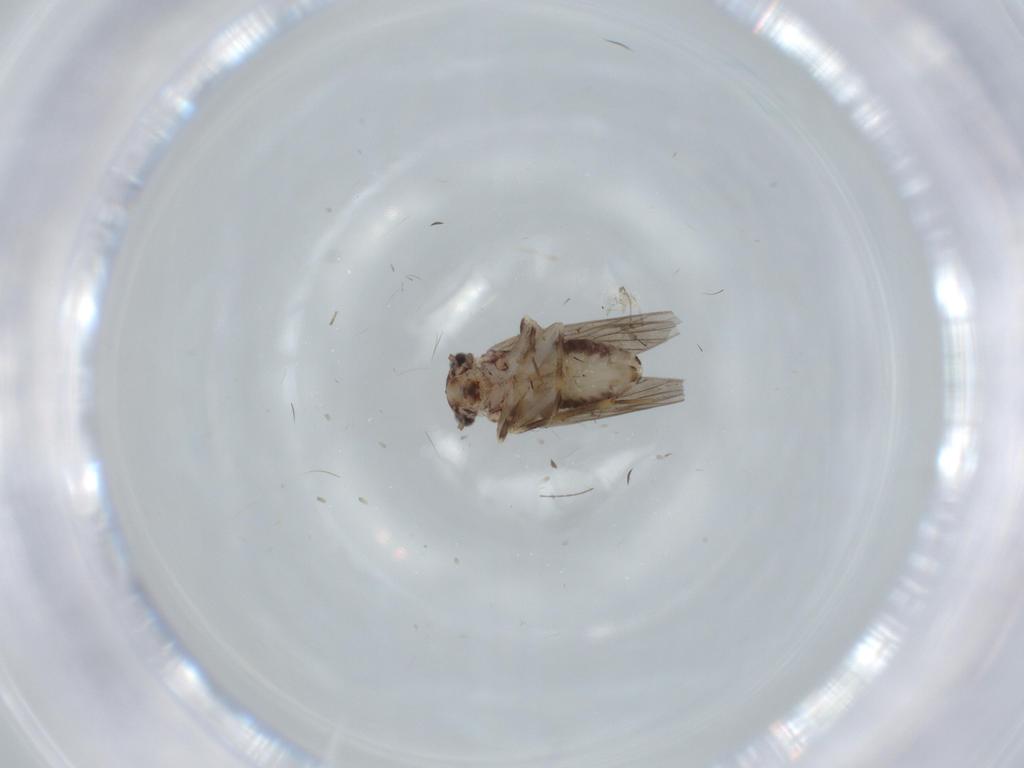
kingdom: Animalia
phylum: Arthropoda
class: Insecta
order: Psocodea
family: Lepidopsocidae
